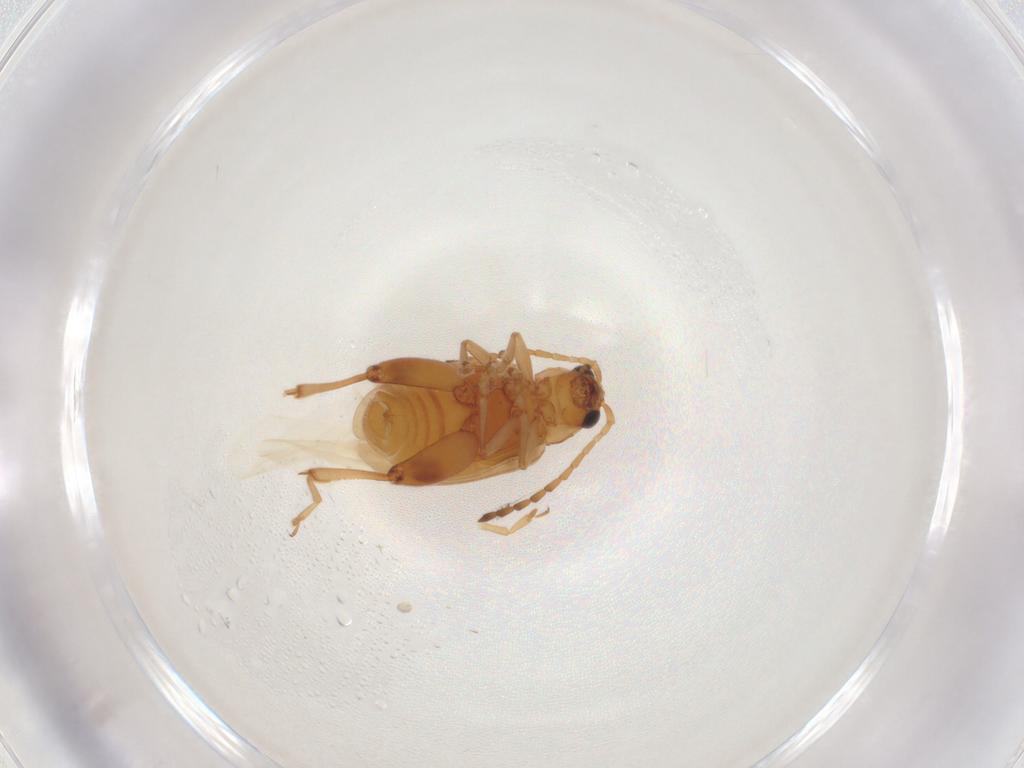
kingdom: Animalia
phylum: Arthropoda
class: Insecta
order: Coleoptera
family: Chrysomelidae
